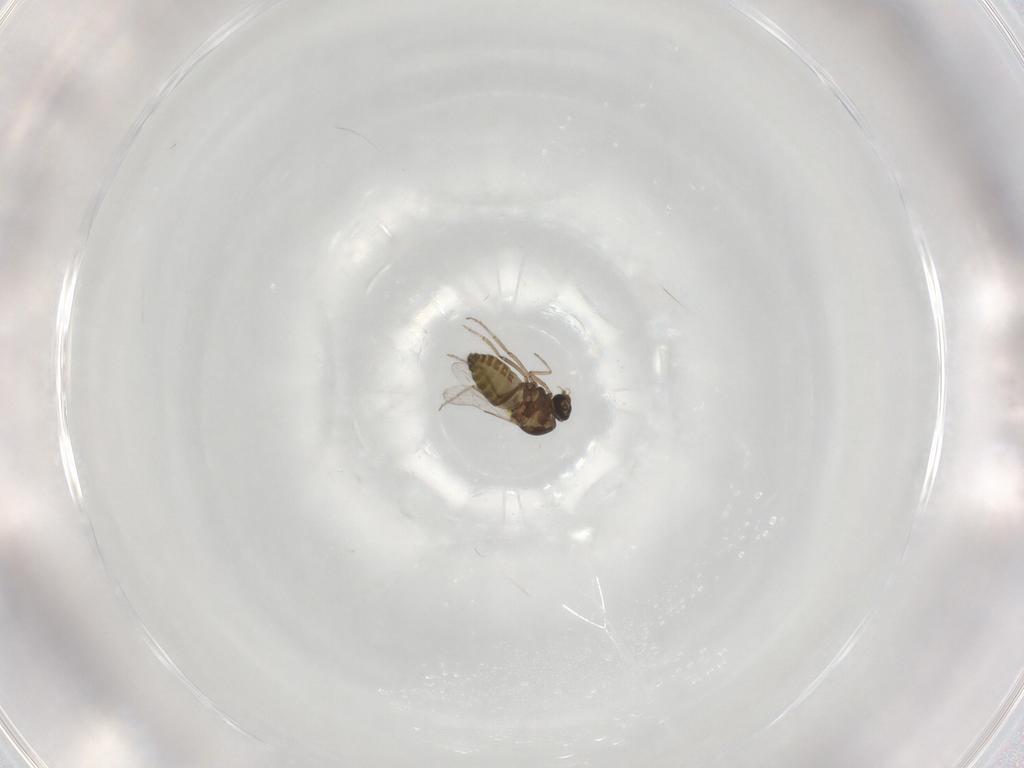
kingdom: Animalia
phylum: Arthropoda
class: Insecta
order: Diptera
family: Ceratopogonidae
